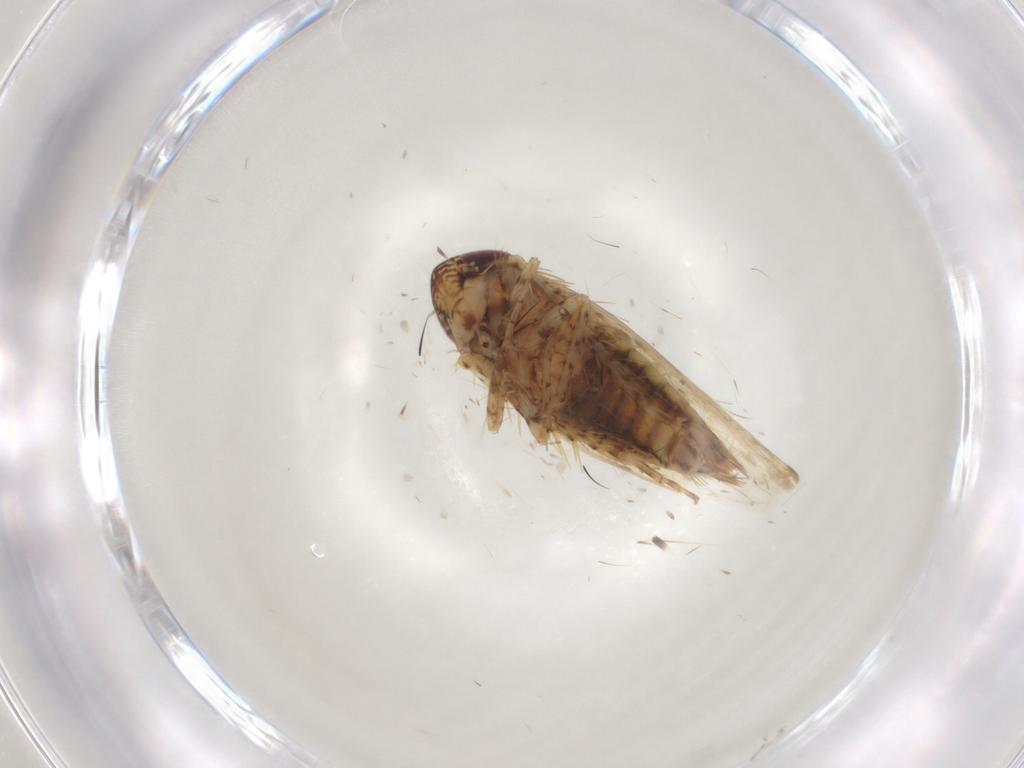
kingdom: Animalia
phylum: Arthropoda
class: Insecta
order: Hemiptera
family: Cicadellidae
